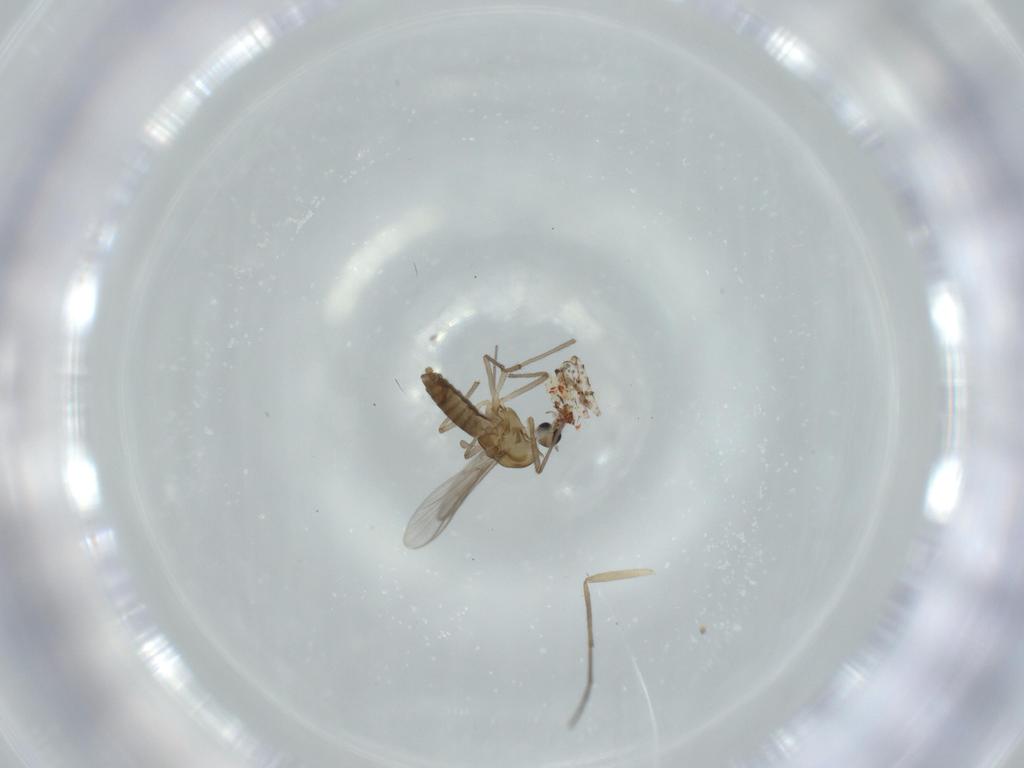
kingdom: Animalia
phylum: Arthropoda
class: Insecta
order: Diptera
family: Chironomidae
